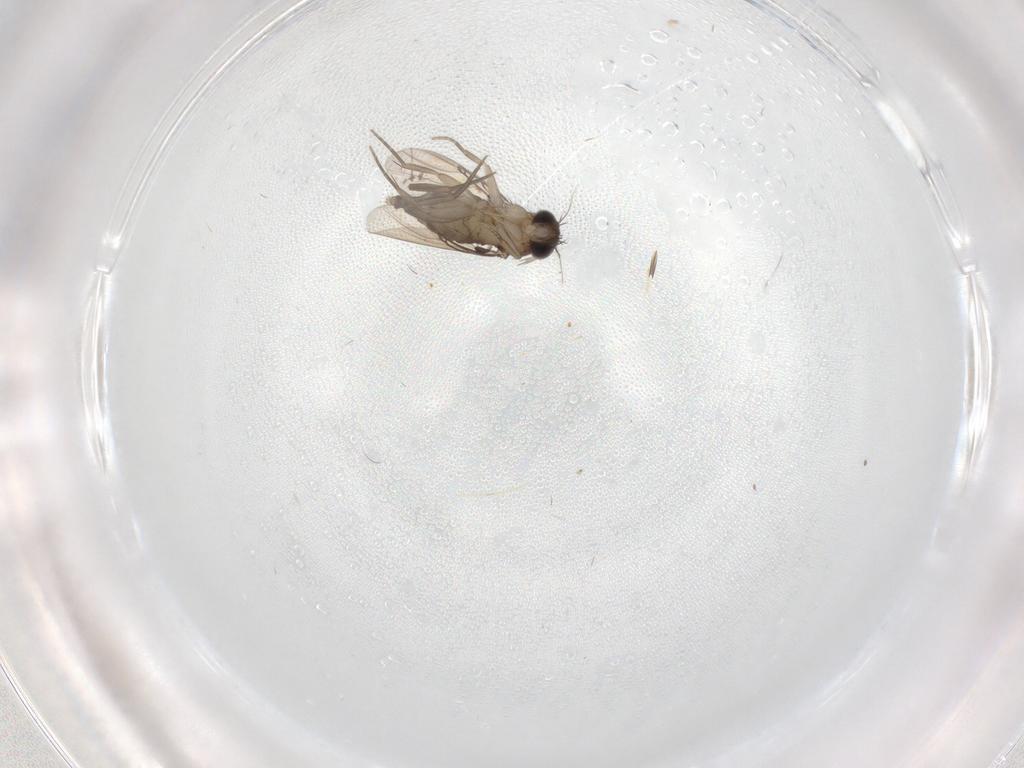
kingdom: Animalia
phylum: Arthropoda
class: Insecta
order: Diptera
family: Phoridae
